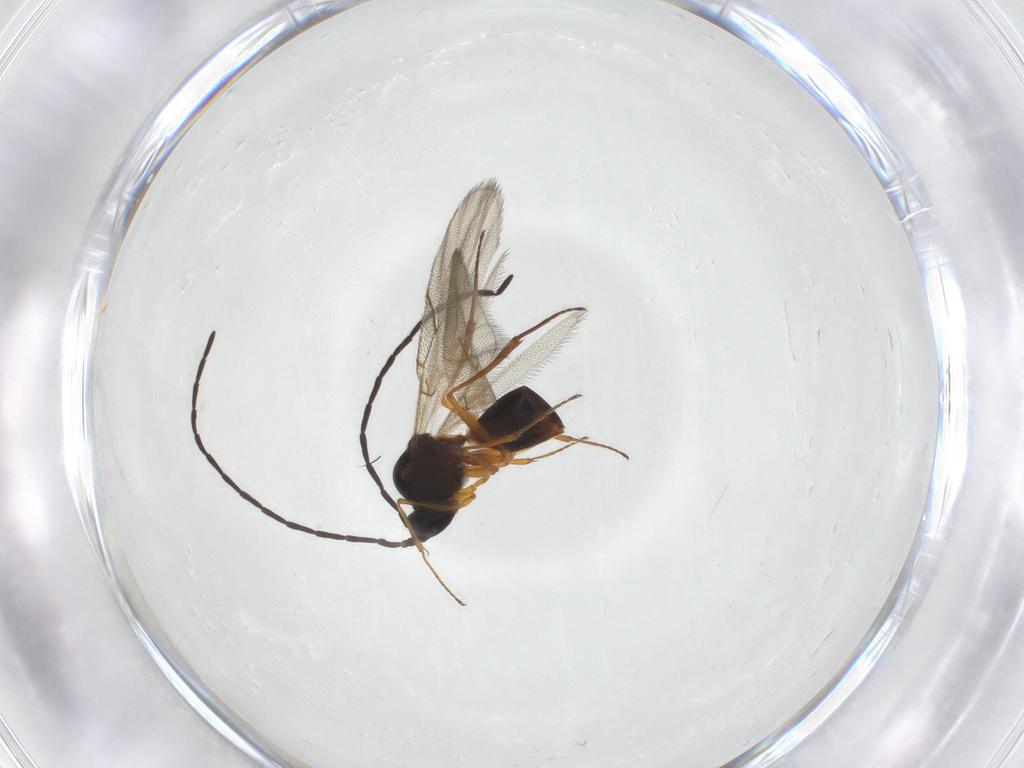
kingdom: Animalia
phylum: Arthropoda
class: Insecta
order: Hymenoptera
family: Figitidae
